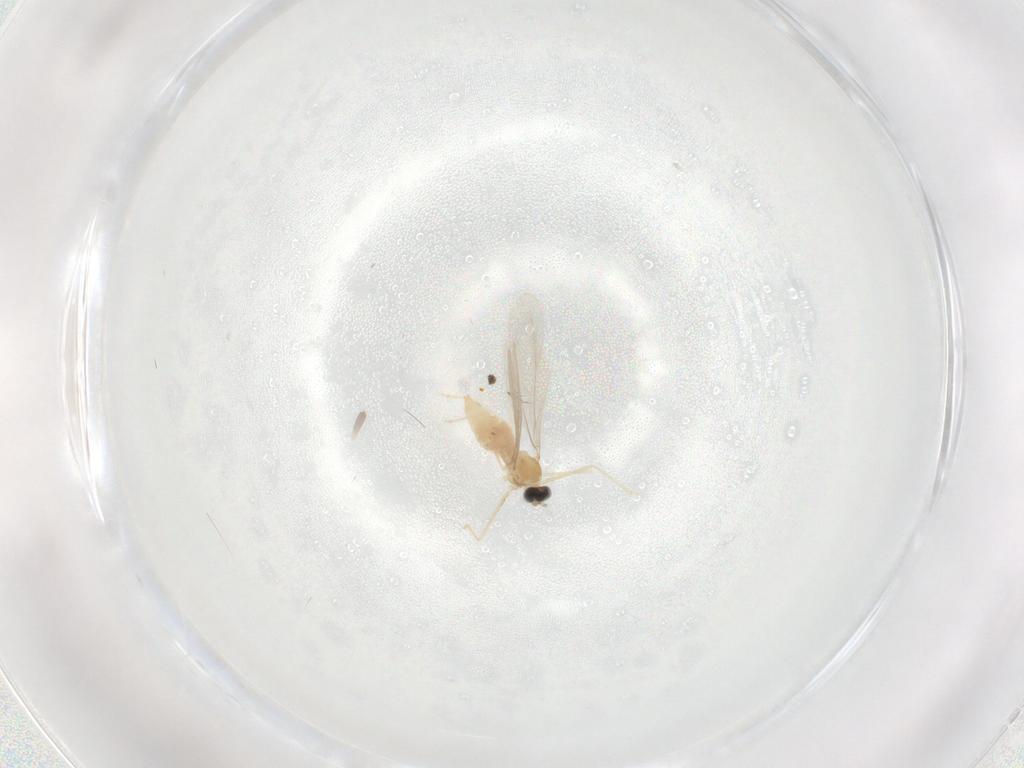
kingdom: Animalia
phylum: Arthropoda
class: Insecta
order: Diptera
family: Cecidomyiidae
